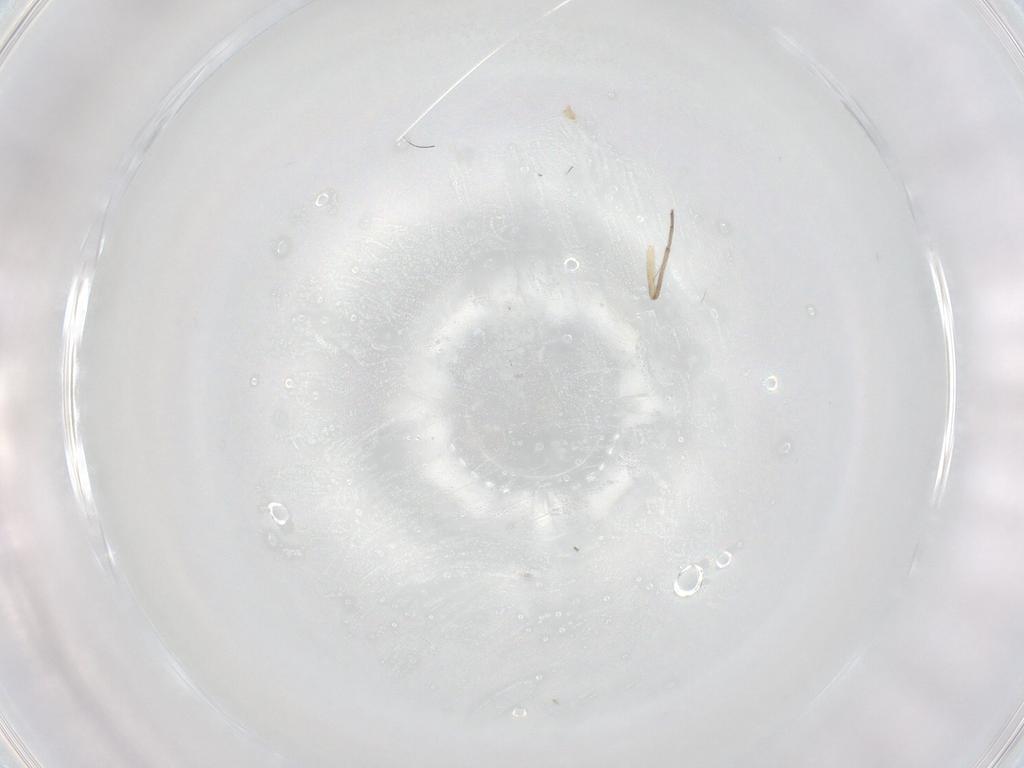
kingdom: Animalia
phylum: Arthropoda
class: Insecta
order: Diptera
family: Chironomidae
